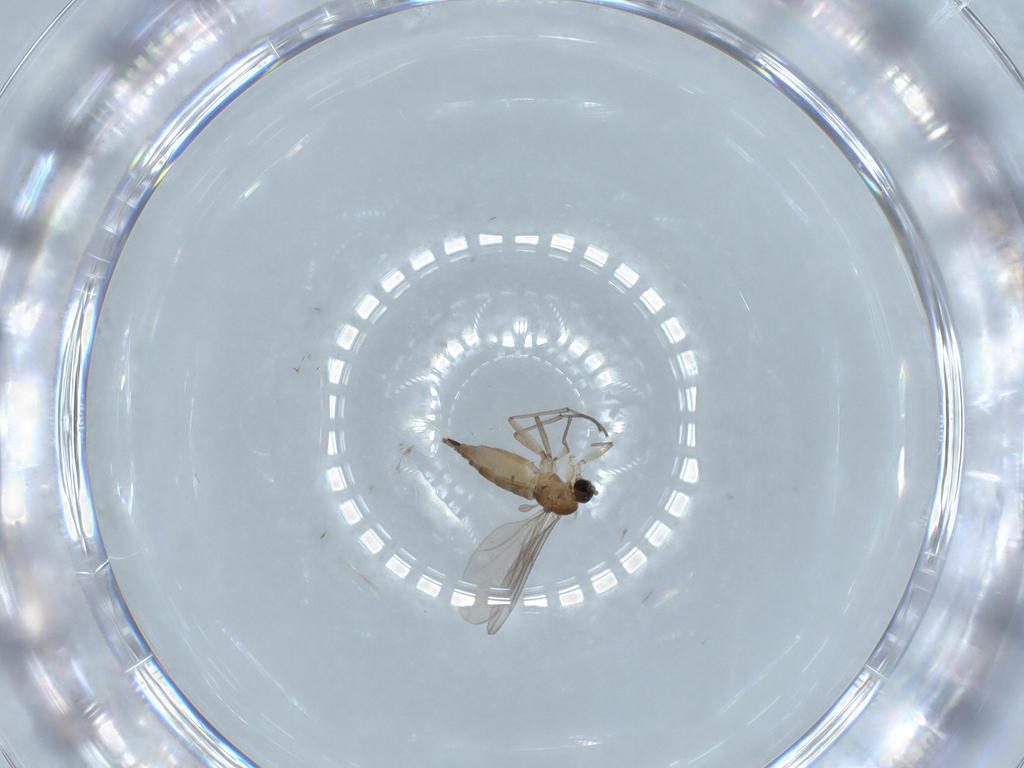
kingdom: Animalia
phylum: Arthropoda
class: Insecta
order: Diptera
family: Sciaridae
